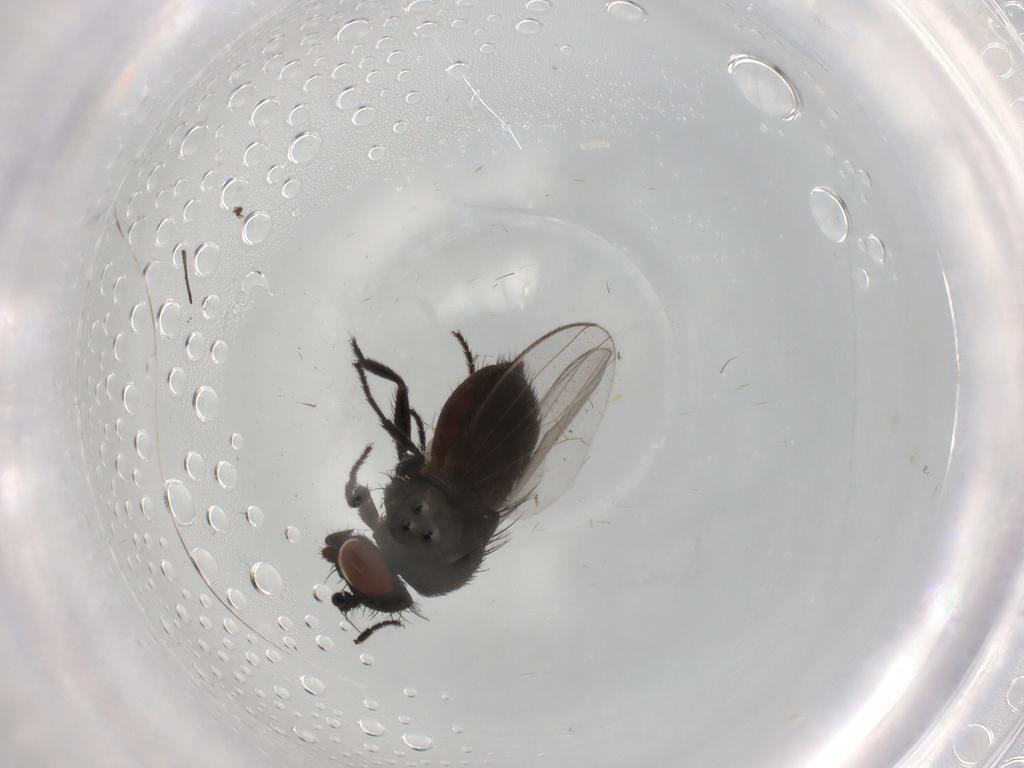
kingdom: Animalia
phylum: Arthropoda
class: Insecta
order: Diptera
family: Milichiidae
